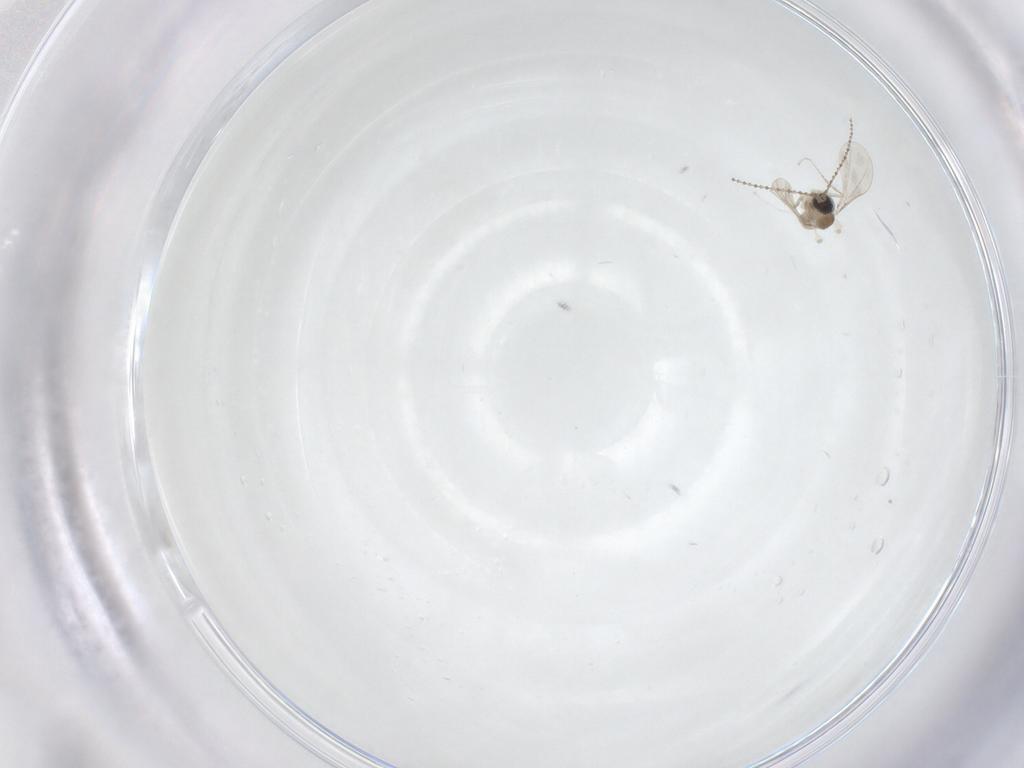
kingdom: Animalia
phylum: Arthropoda
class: Insecta
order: Diptera
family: Cecidomyiidae
